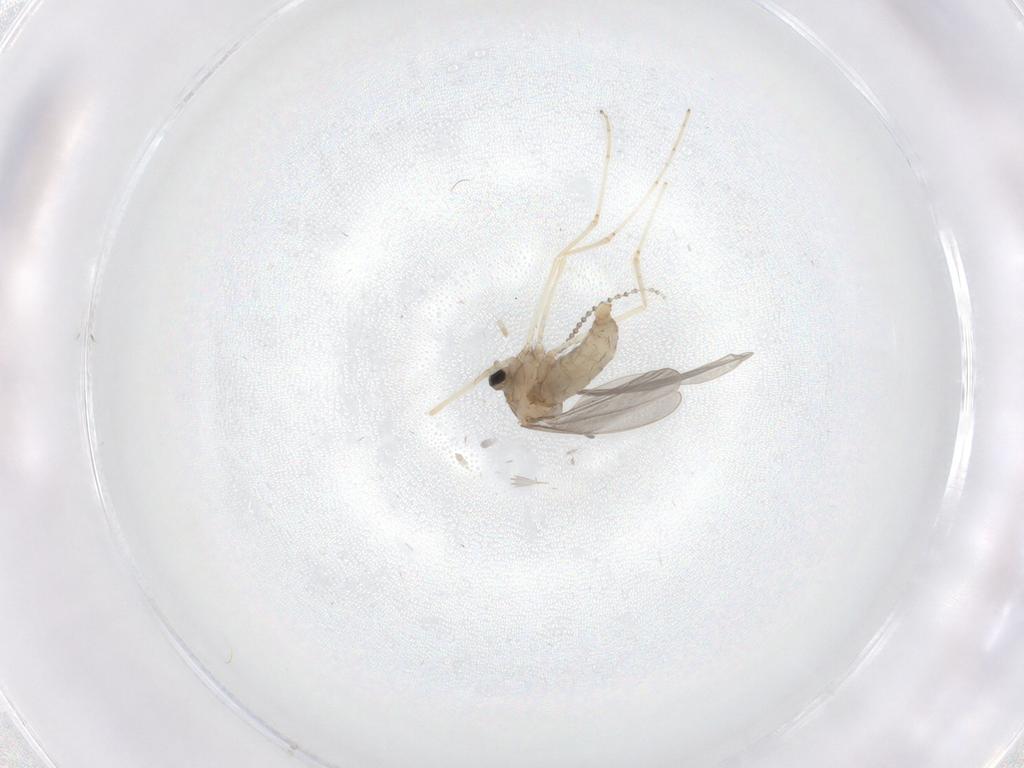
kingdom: Animalia
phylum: Arthropoda
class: Insecta
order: Diptera
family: Cecidomyiidae
